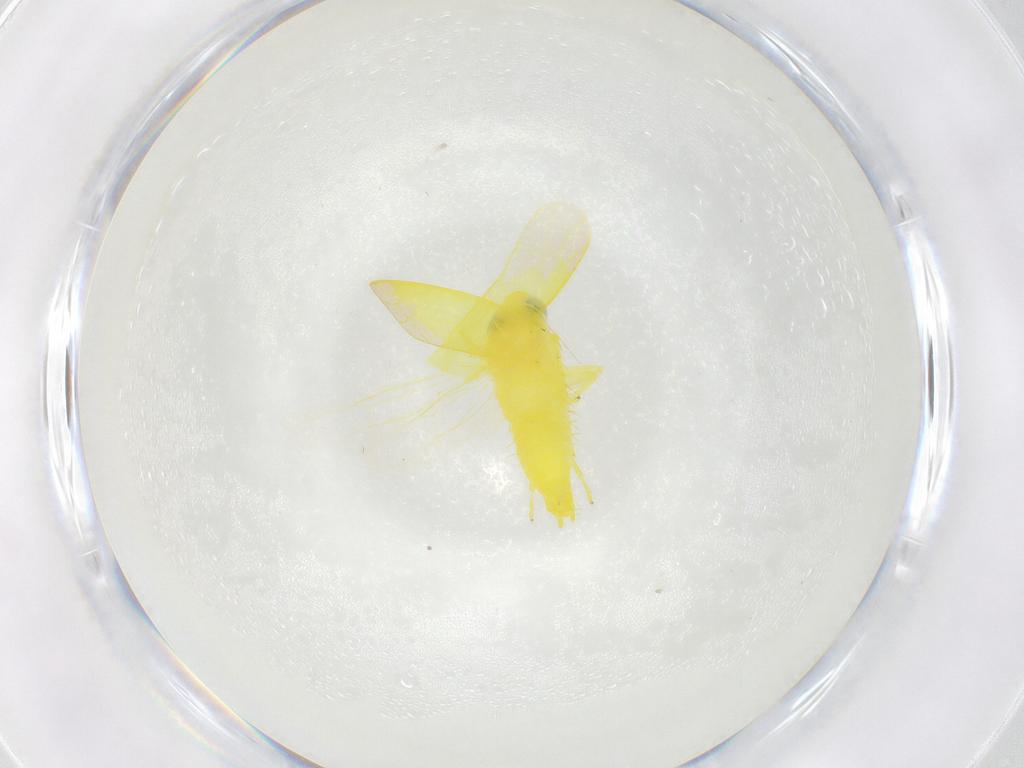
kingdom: Animalia
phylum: Arthropoda
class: Insecta
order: Hemiptera
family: Cicadellidae
